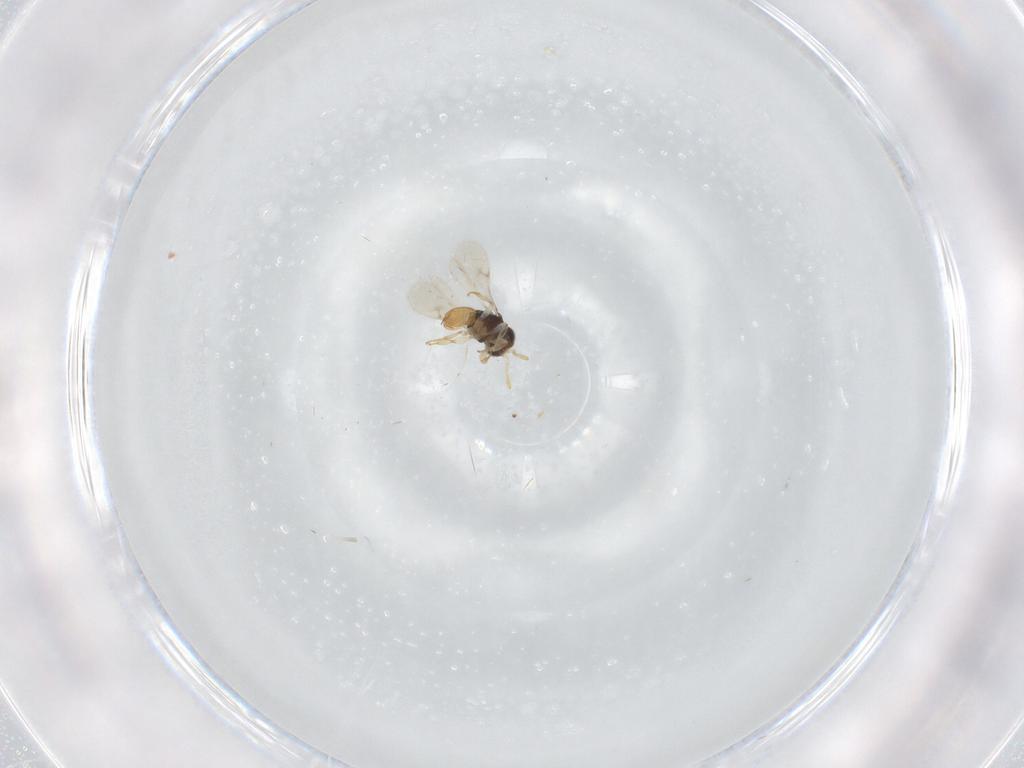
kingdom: Animalia
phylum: Arthropoda
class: Insecta
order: Hymenoptera
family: Scelionidae
